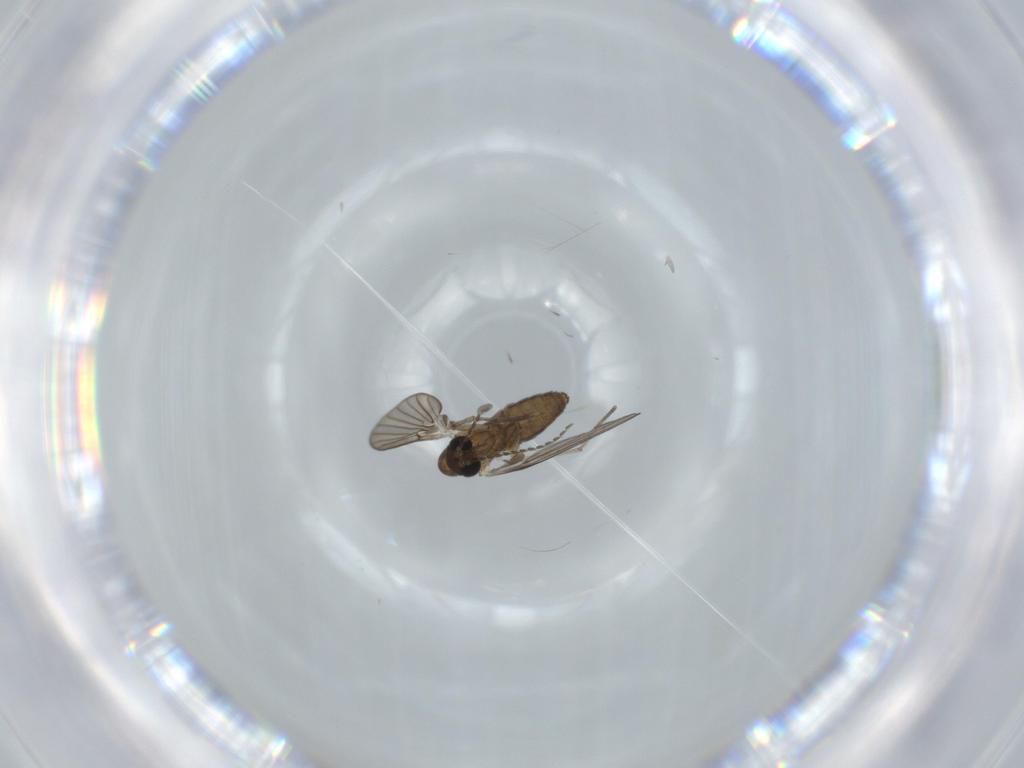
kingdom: Animalia
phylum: Arthropoda
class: Insecta
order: Diptera
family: Psychodidae
